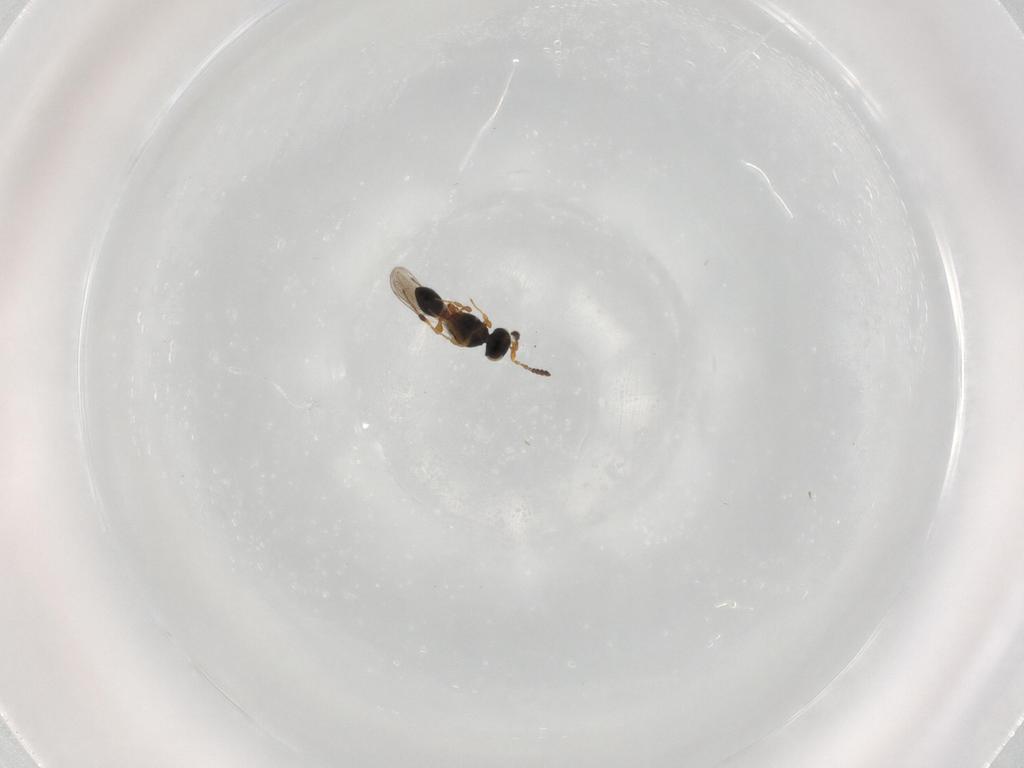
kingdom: Animalia
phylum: Arthropoda
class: Insecta
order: Hymenoptera
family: Platygastridae
